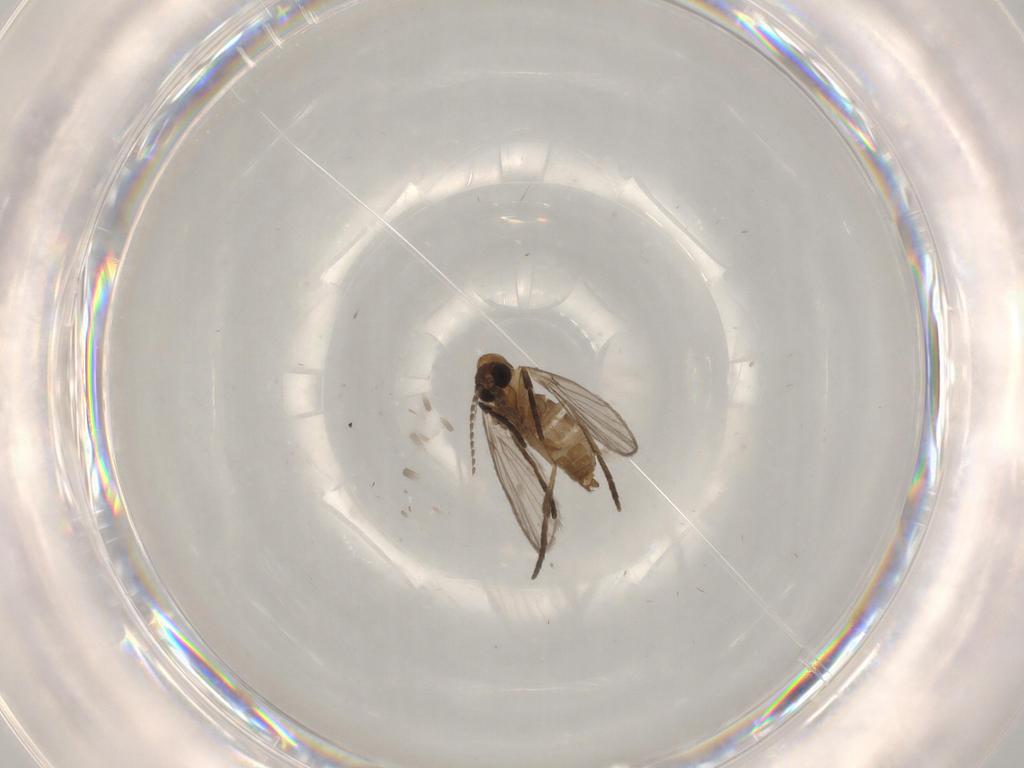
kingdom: Animalia
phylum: Arthropoda
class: Insecta
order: Diptera
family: Psychodidae
